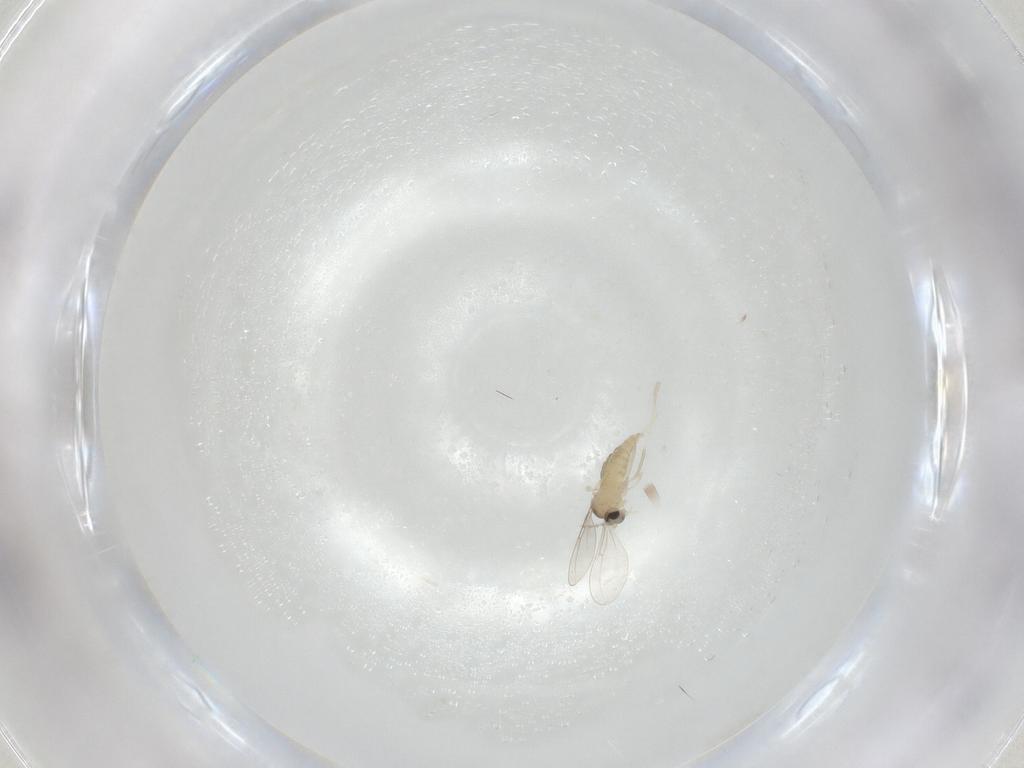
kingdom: Animalia
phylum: Arthropoda
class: Insecta
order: Diptera
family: Cecidomyiidae
